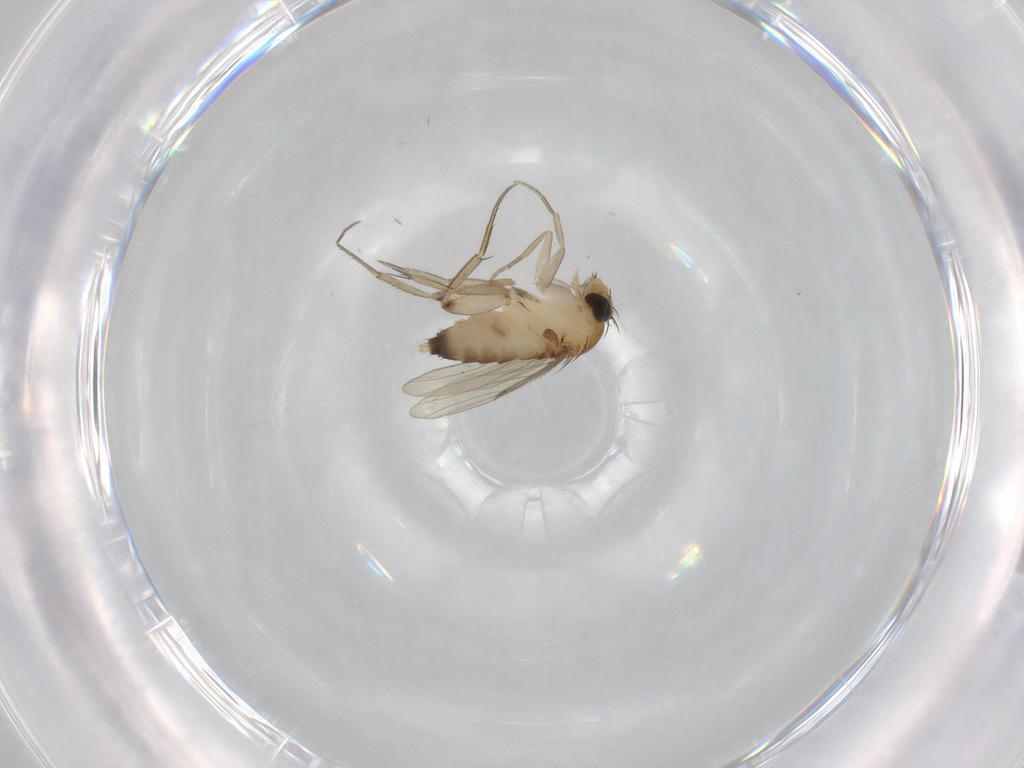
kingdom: Animalia
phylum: Arthropoda
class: Insecta
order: Diptera
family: Phoridae
